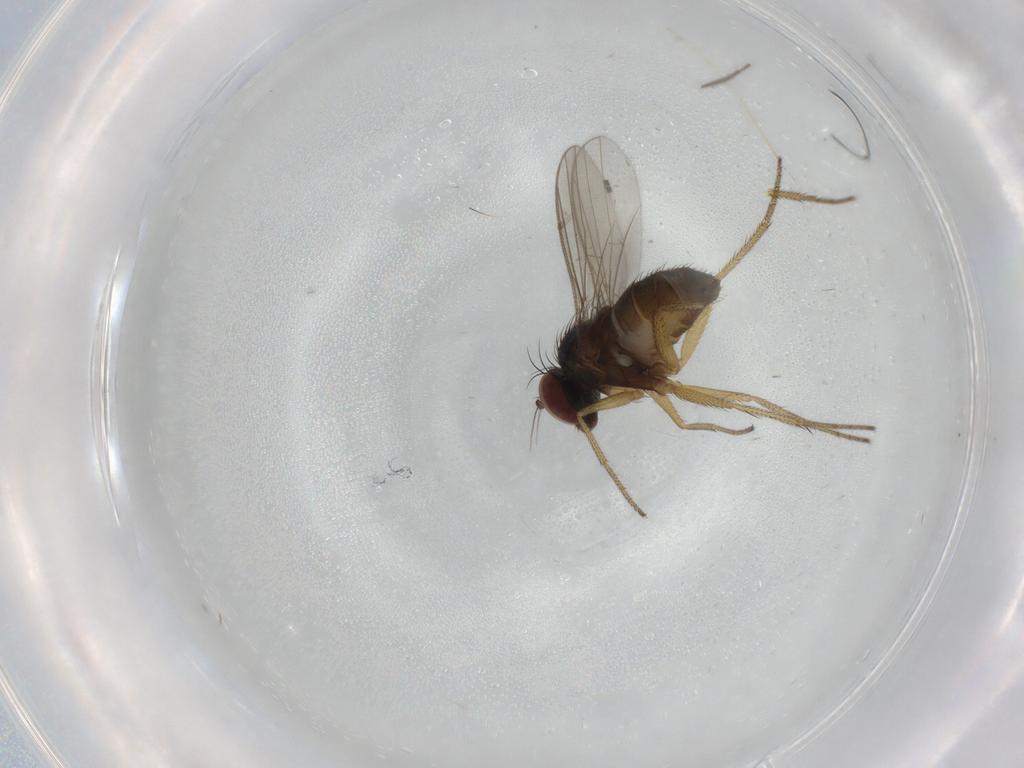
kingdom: Animalia
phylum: Arthropoda
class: Insecta
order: Diptera
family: Dolichopodidae
